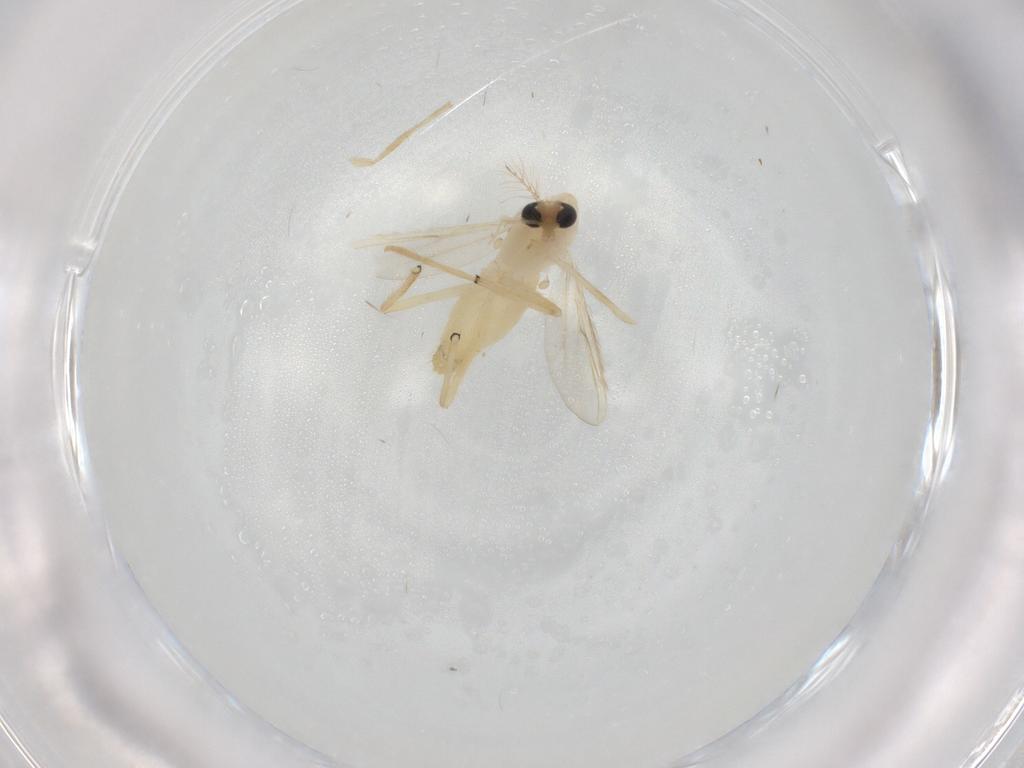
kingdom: Animalia
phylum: Arthropoda
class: Insecta
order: Diptera
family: Chironomidae
